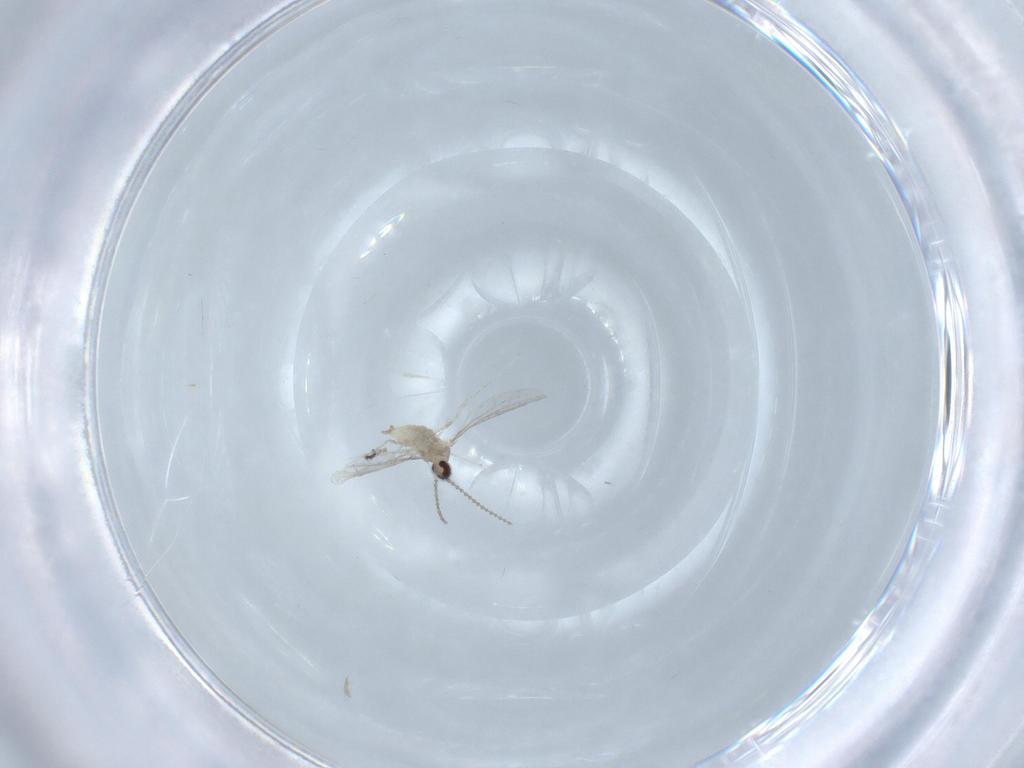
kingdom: Animalia
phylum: Arthropoda
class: Insecta
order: Diptera
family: Cecidomyiidae
